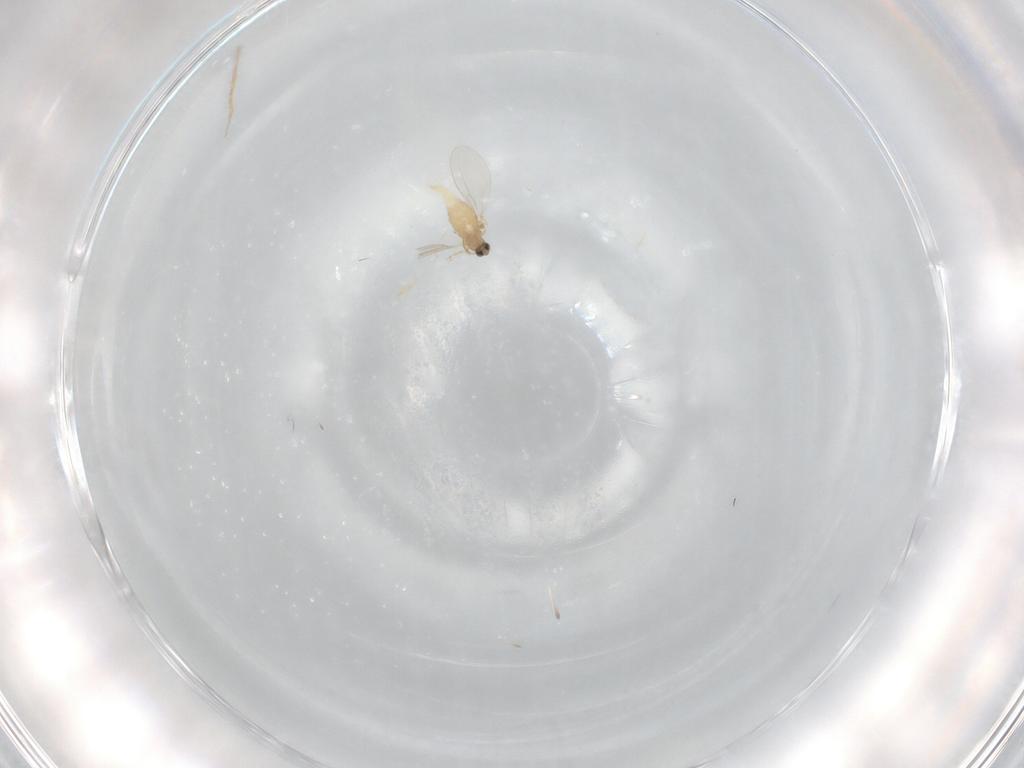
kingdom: Animalia
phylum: Arthropoda
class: Insecta
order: Diptera
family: Cecidomyiidae
